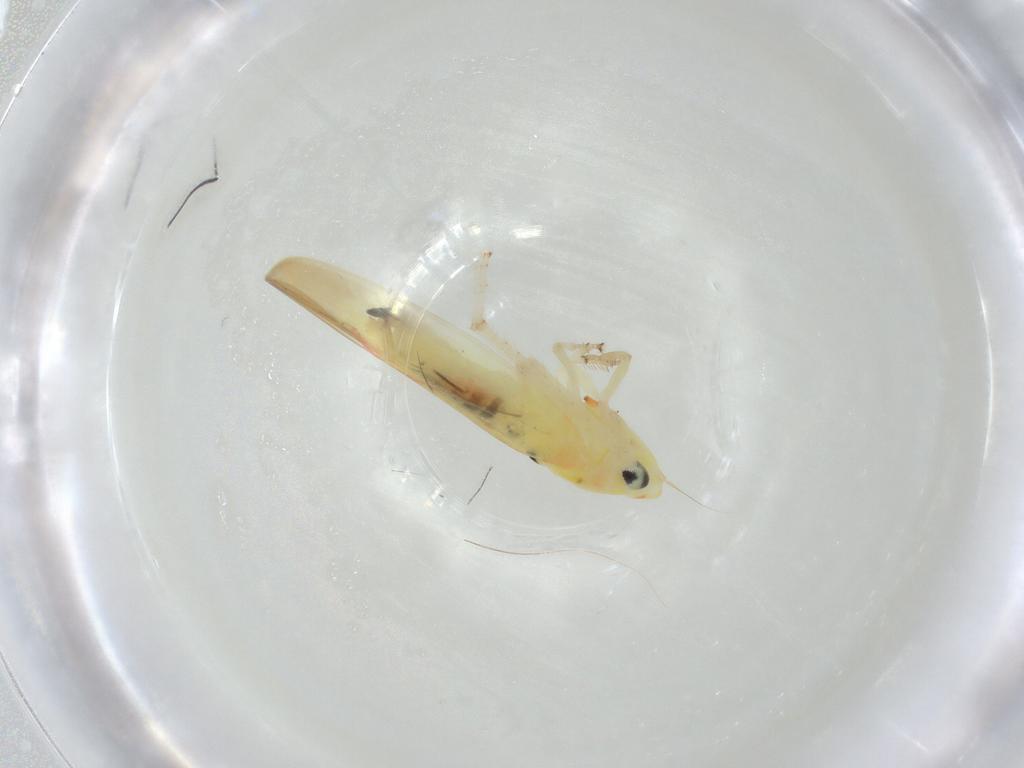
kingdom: Animalia
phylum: Arthropoda
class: Insecta
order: Hemiptera
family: Cicadellidae
